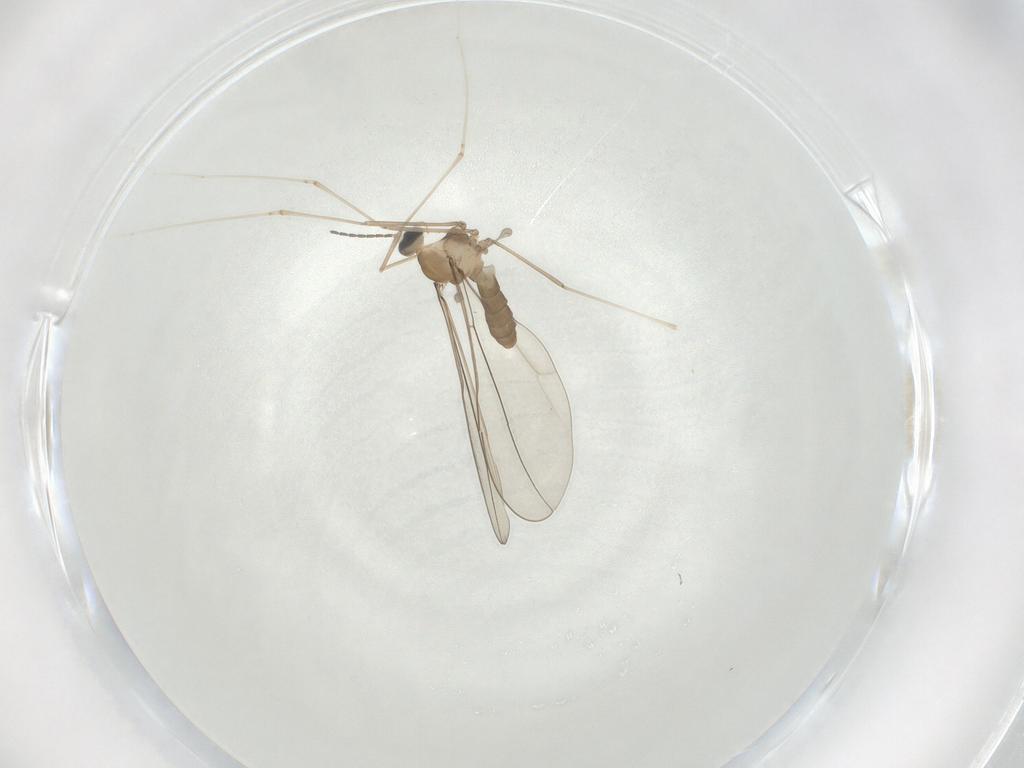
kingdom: Animalia
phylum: Arthropoda
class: Insecta
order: Diptera
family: Cecidomyiidae
